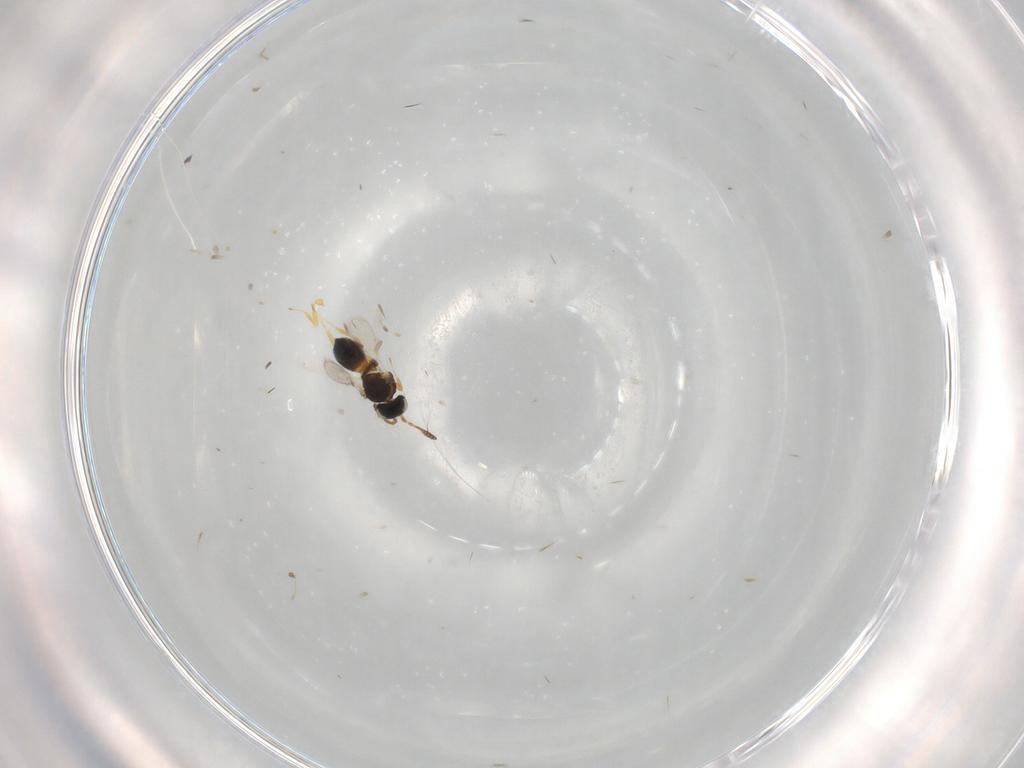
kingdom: Animalia
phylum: Arthropoda
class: Insecta
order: Hymenoptera
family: Scelionidae
